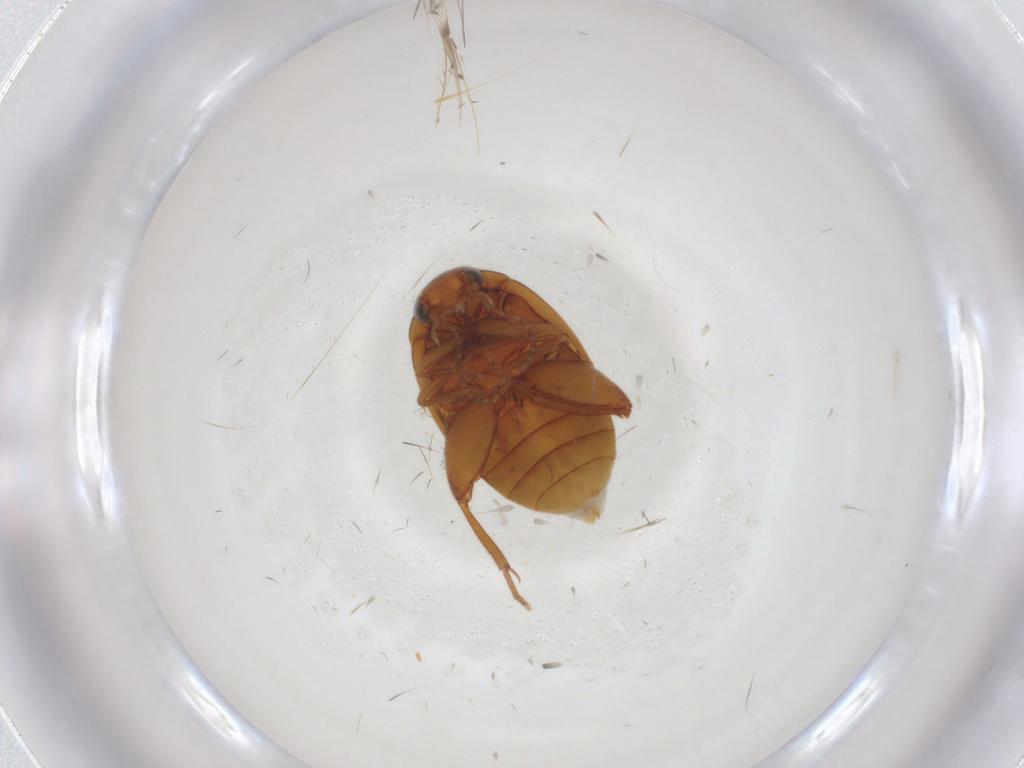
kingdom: Animalia
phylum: Arthropoda
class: Insecta
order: Coleoptera
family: Scirtidae
